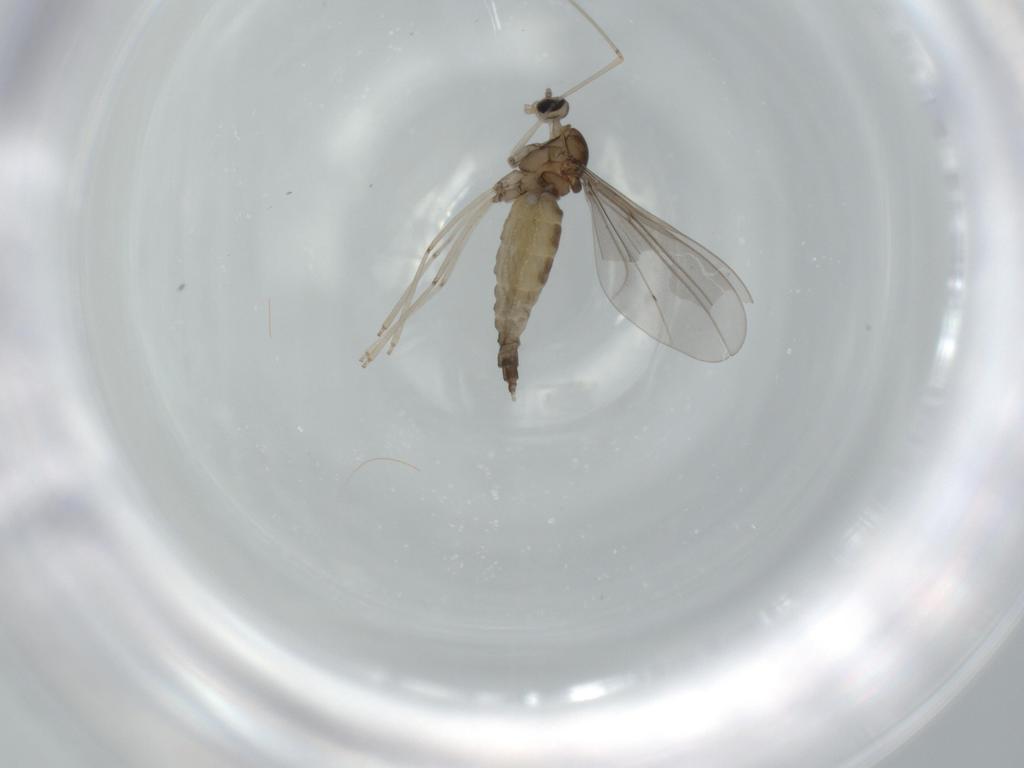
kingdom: Animalia
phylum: Arthropoda
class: Insecta
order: Diptera
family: Cecidomyiidae
